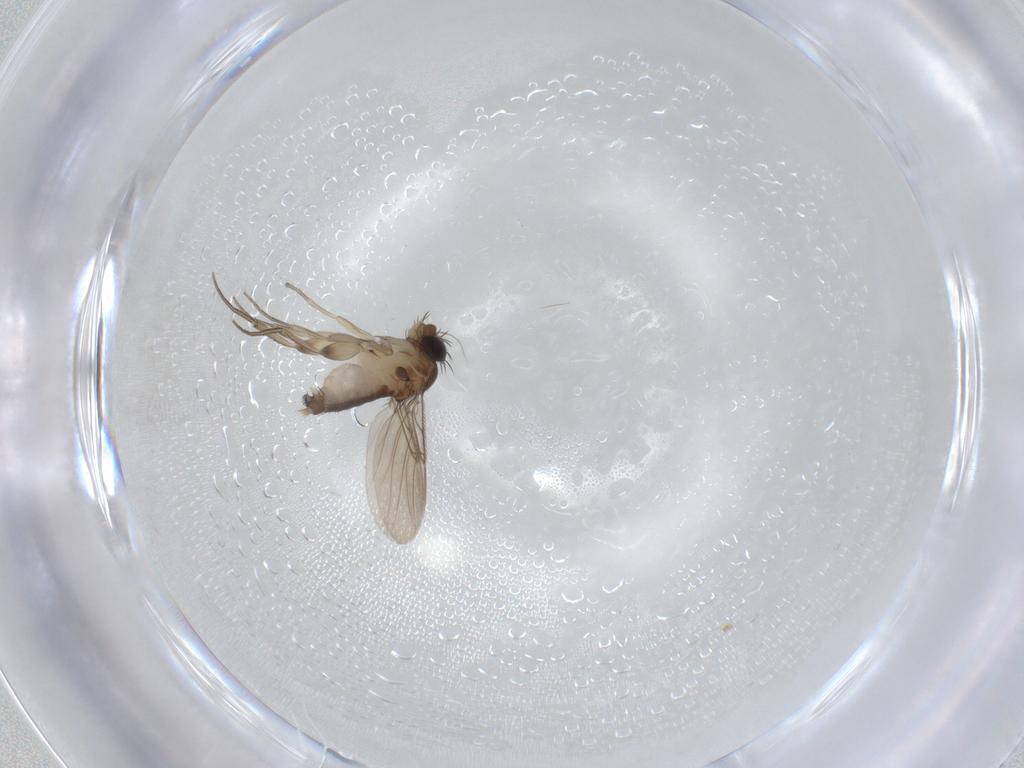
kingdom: Animalia
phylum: Arthropoda
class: Insecta
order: Diptera
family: Phoridae
